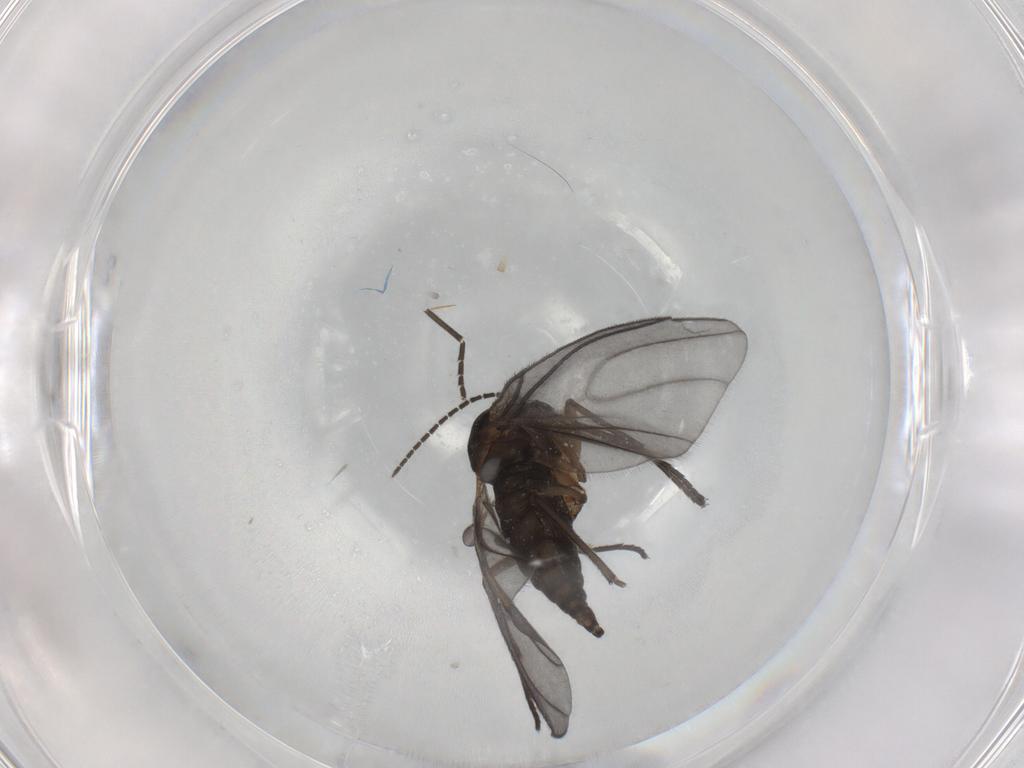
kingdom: Animalia
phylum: Arthropoda
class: Insecta
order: Diptera
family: Sciaridae
